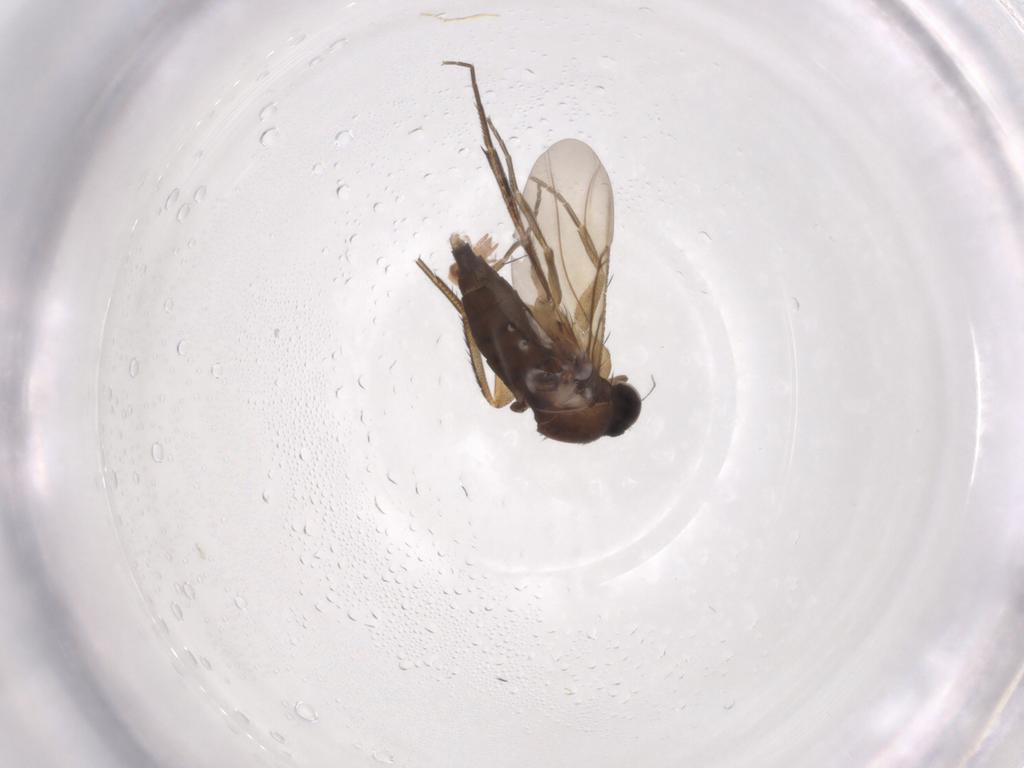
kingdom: Animalia
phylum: Arthropoda
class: Insecta
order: Diptera
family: Phoridae
